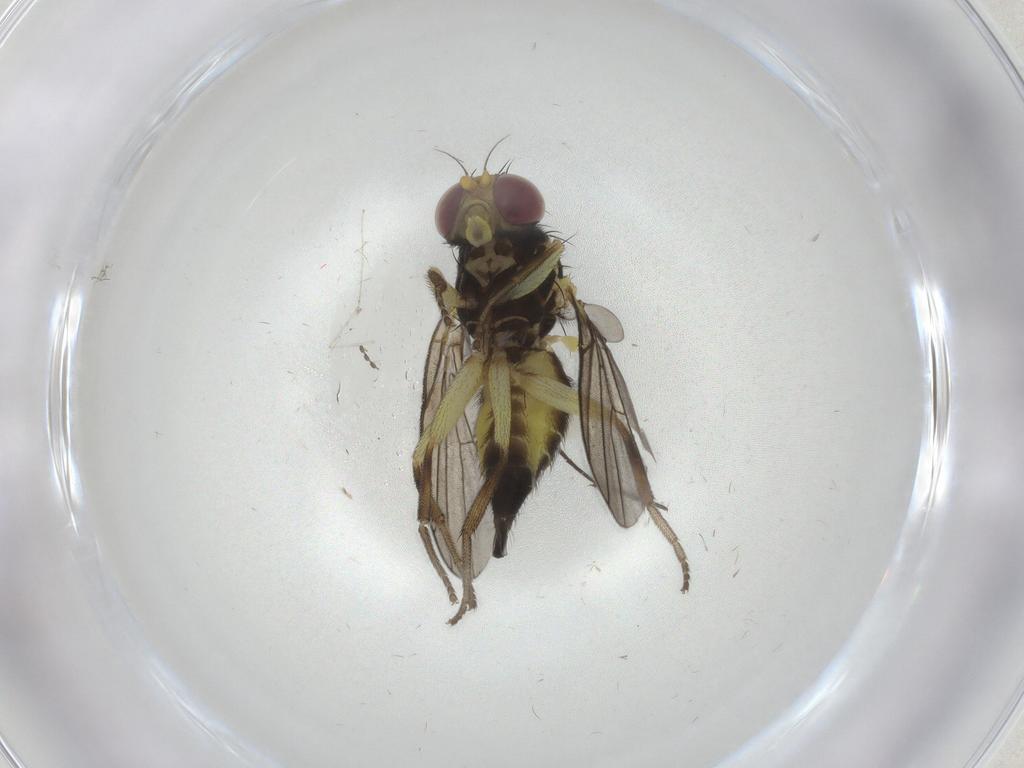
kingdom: Animalia
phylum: Arthropoda
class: Insecta
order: Diptera
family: Cecidomyiidae
